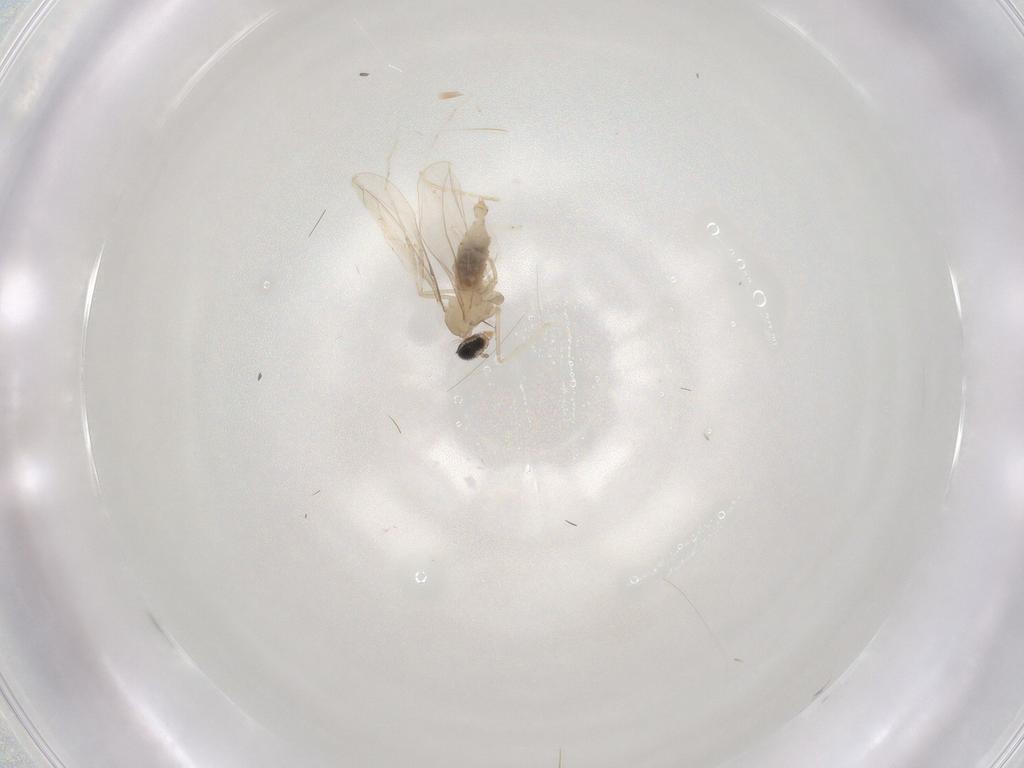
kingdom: Animalia
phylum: Arthropoda
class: Insecta
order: Diptera
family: Cecidomyiidae
